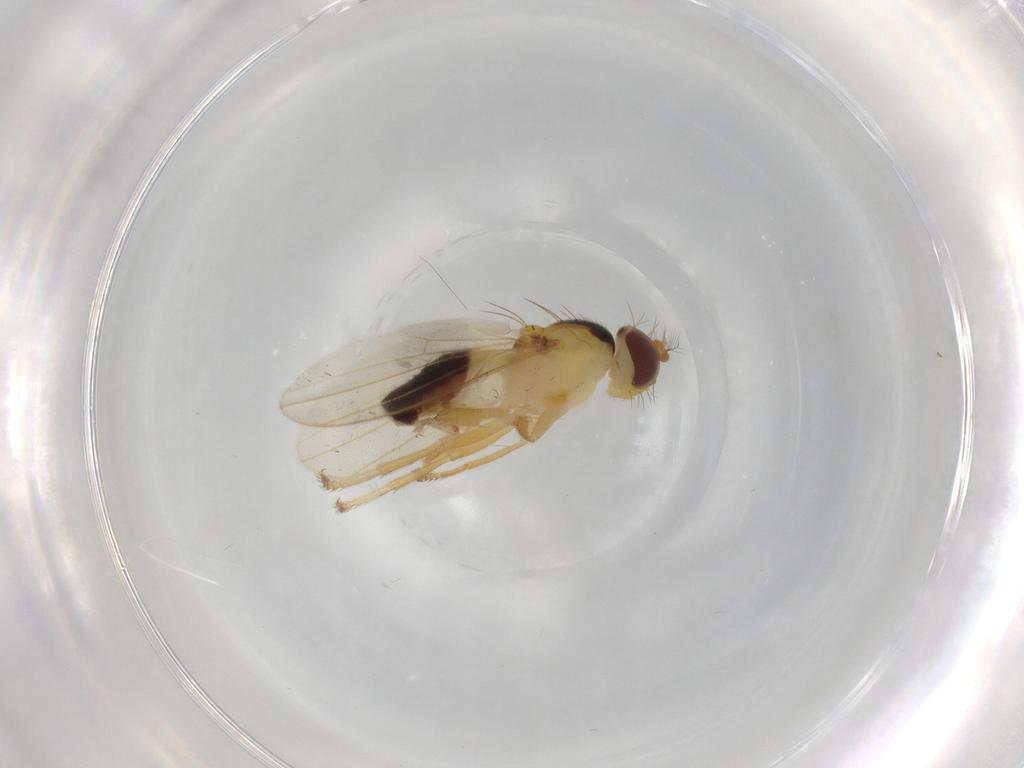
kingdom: Animalia
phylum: Arthropoda
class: Insecta
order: Diptera
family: Periscelididae
